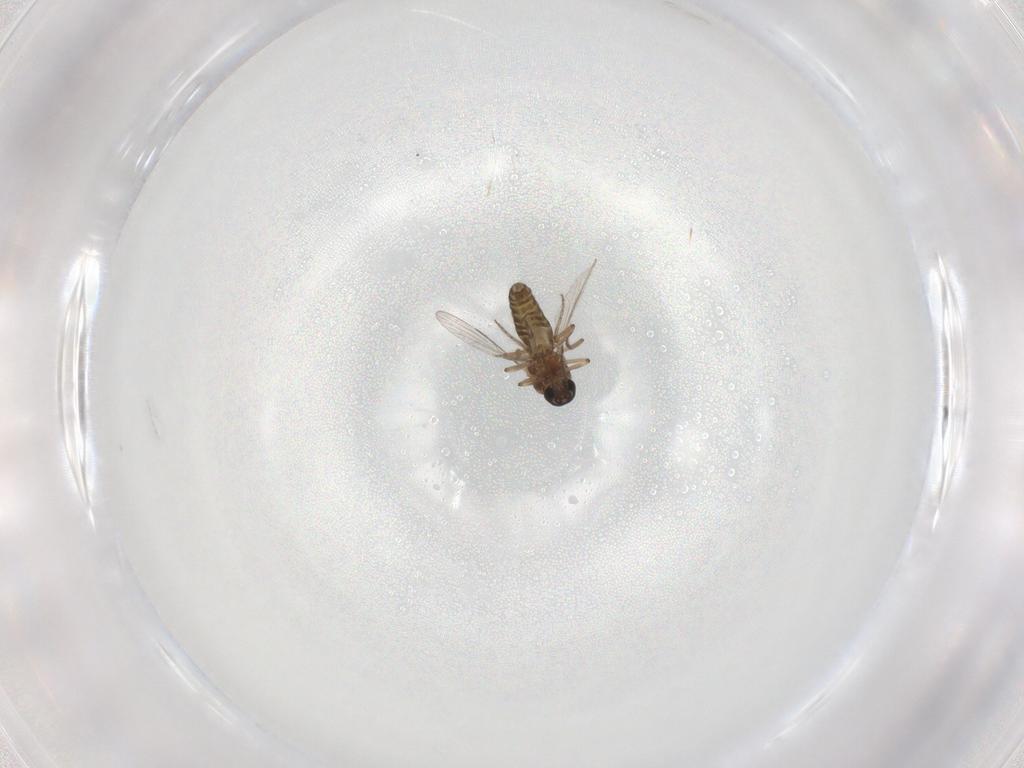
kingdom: Animalia
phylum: Arthropoda
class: Insecta
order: Diptera
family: Ceratopogonidae
